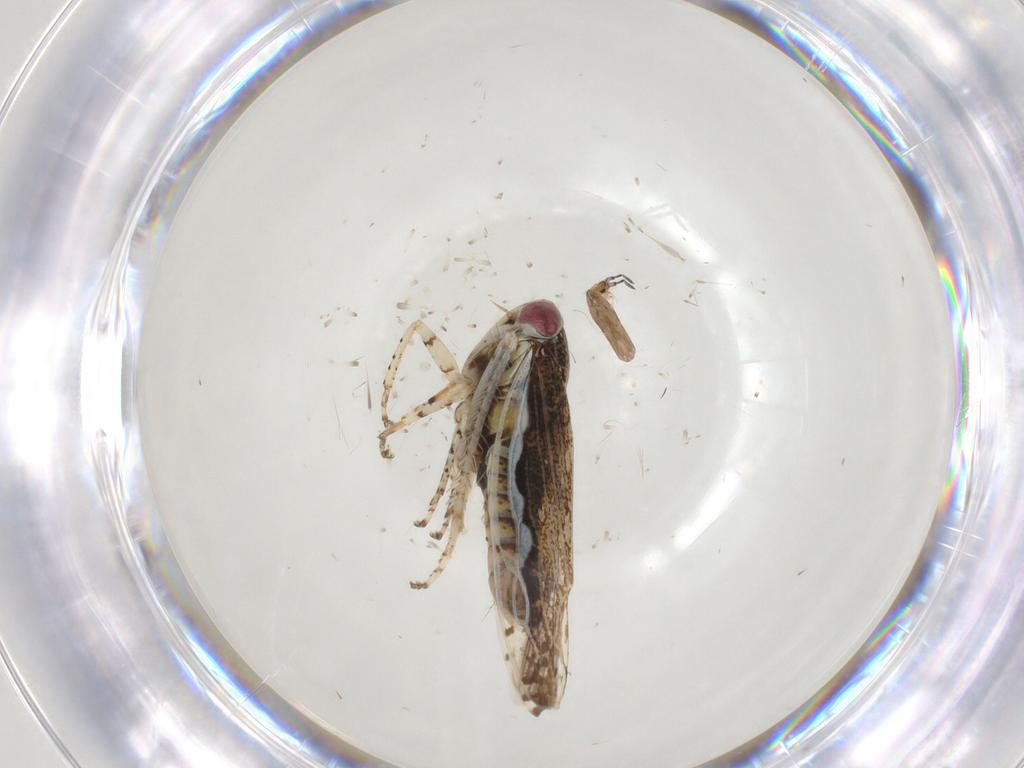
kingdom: Animalia
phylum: Arthropoda
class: Insecta
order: Hemiptera
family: Cicadellidae
